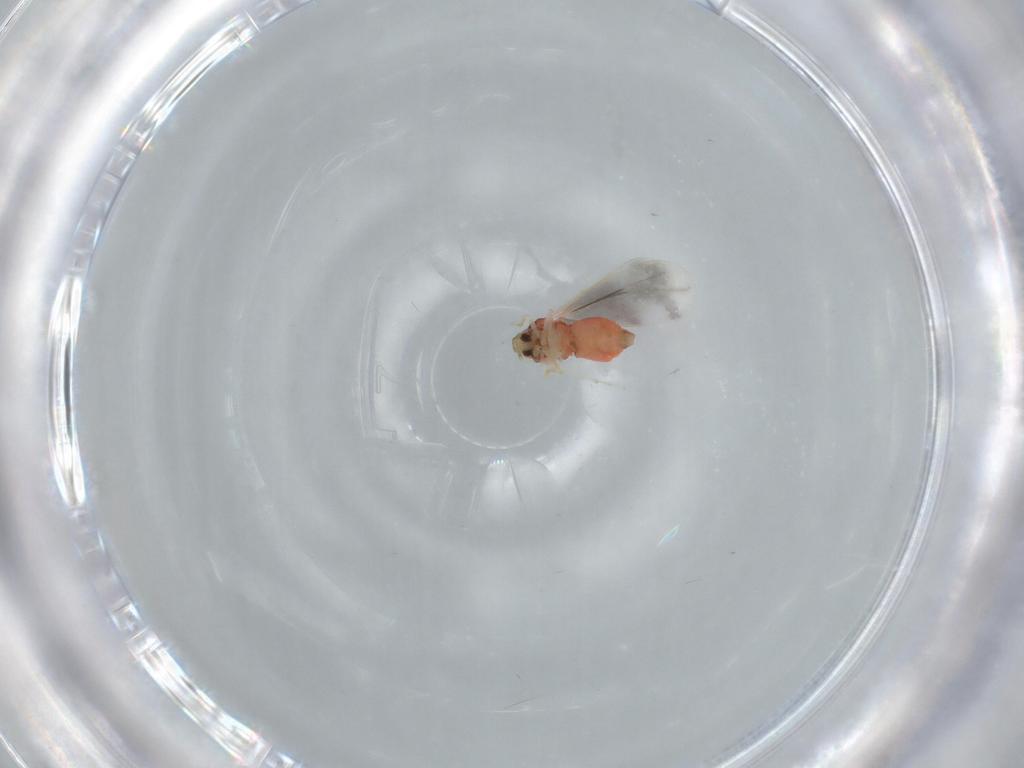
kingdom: Animalia
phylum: Arthropoda
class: Insecta
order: Hemiptera
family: Aleyrodidae
